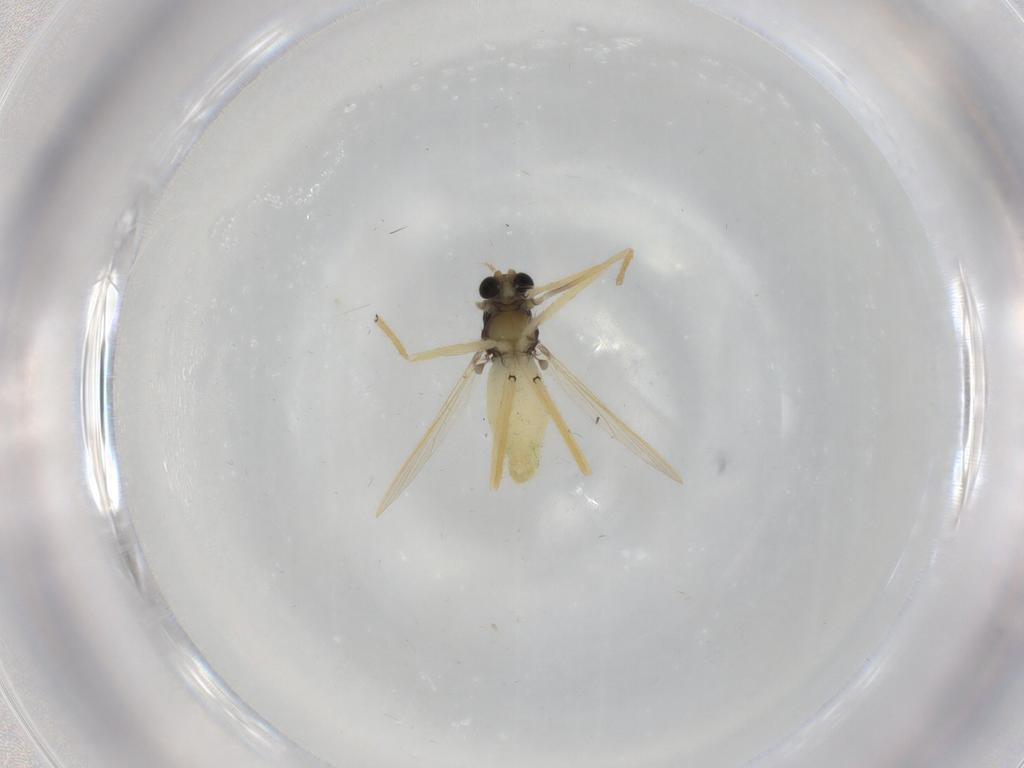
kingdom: Animalia
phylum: Arthropoda
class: Insecta
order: Diptera
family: Chironomidae
